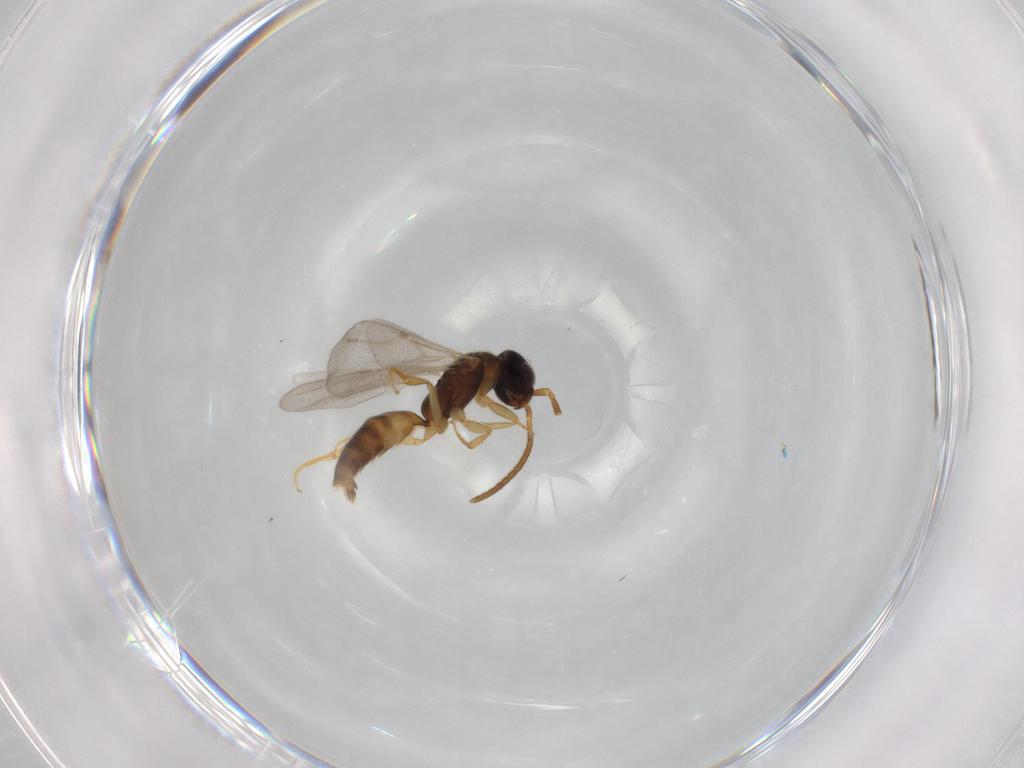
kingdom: Animalia
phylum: Arthropoda
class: Insecta
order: Hymenoptera
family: Bethylidae
